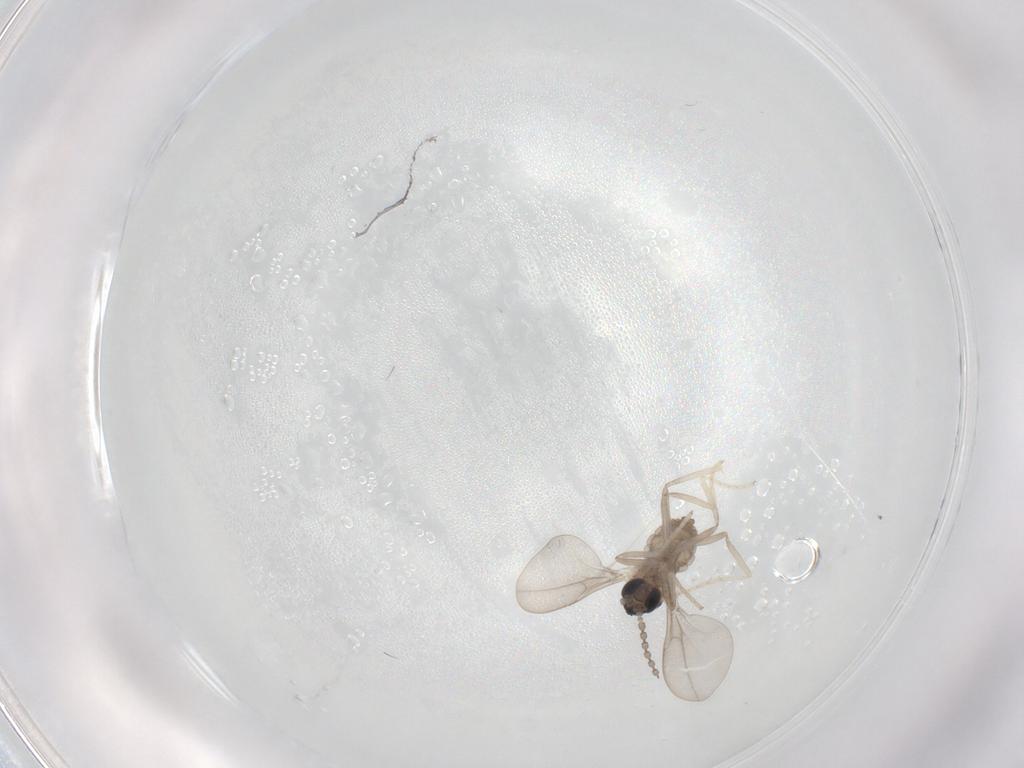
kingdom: Animalia
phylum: Arthropoda
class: Insecta
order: Diptera
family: Cecidomyiidae
